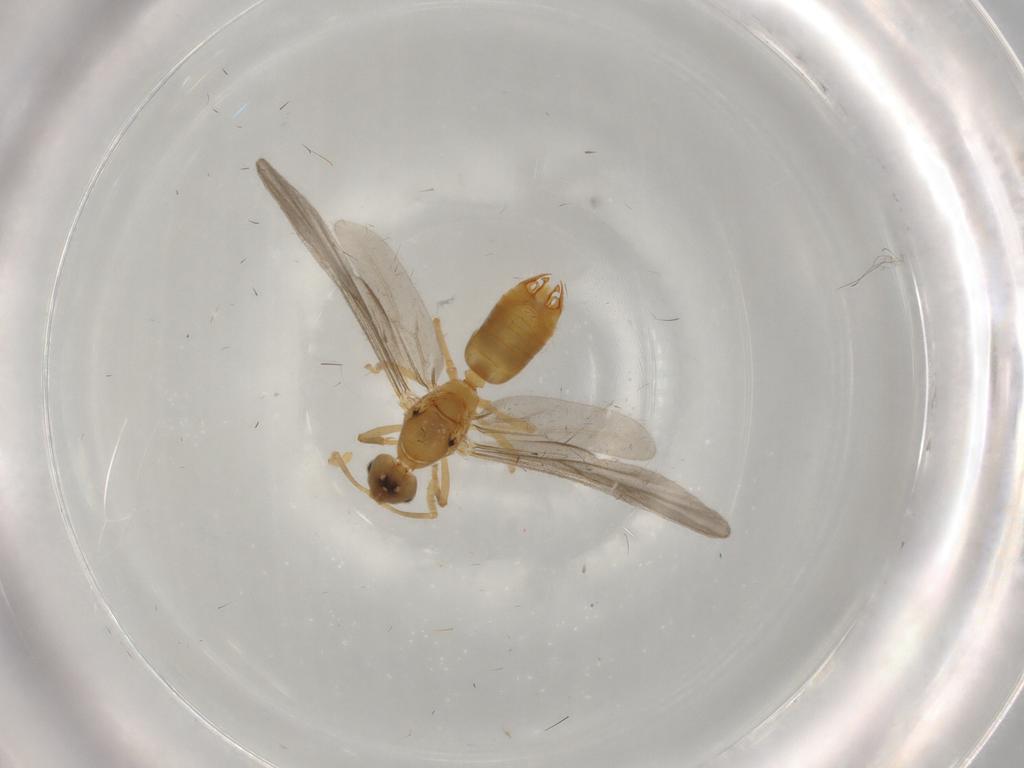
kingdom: Animalia
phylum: Arthropoda
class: Insecta
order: Hymenoptera
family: Formicidae
